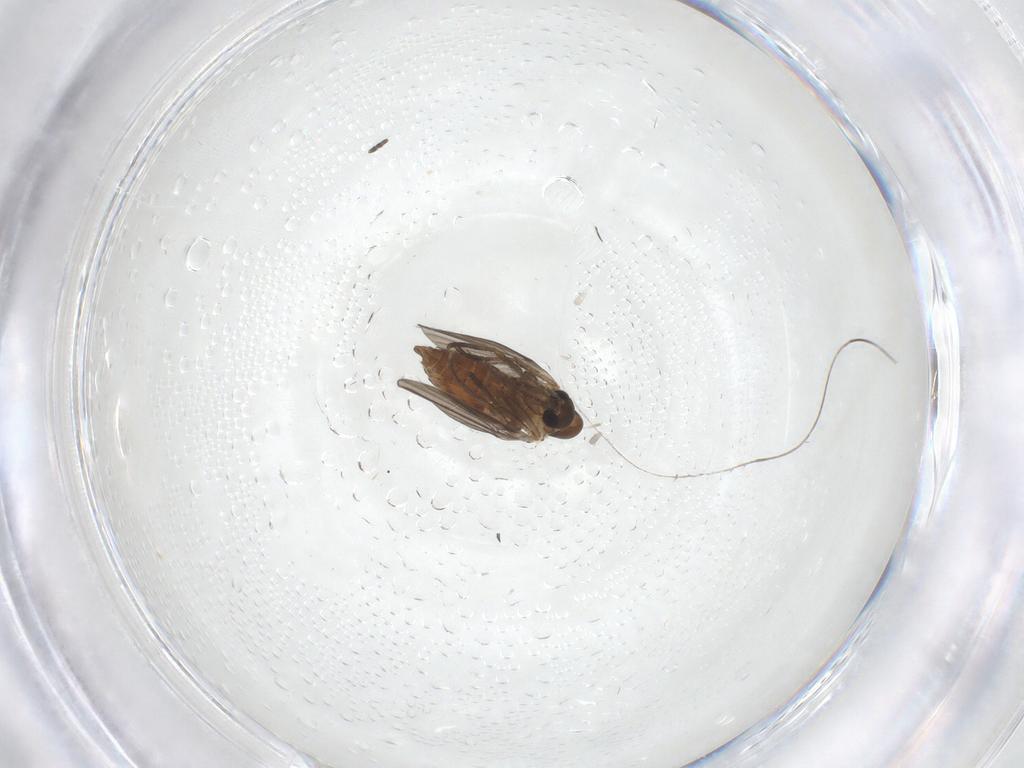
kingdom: Animalia
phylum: Arthropoda
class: Insecta
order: Diptera
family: Psychodidae
